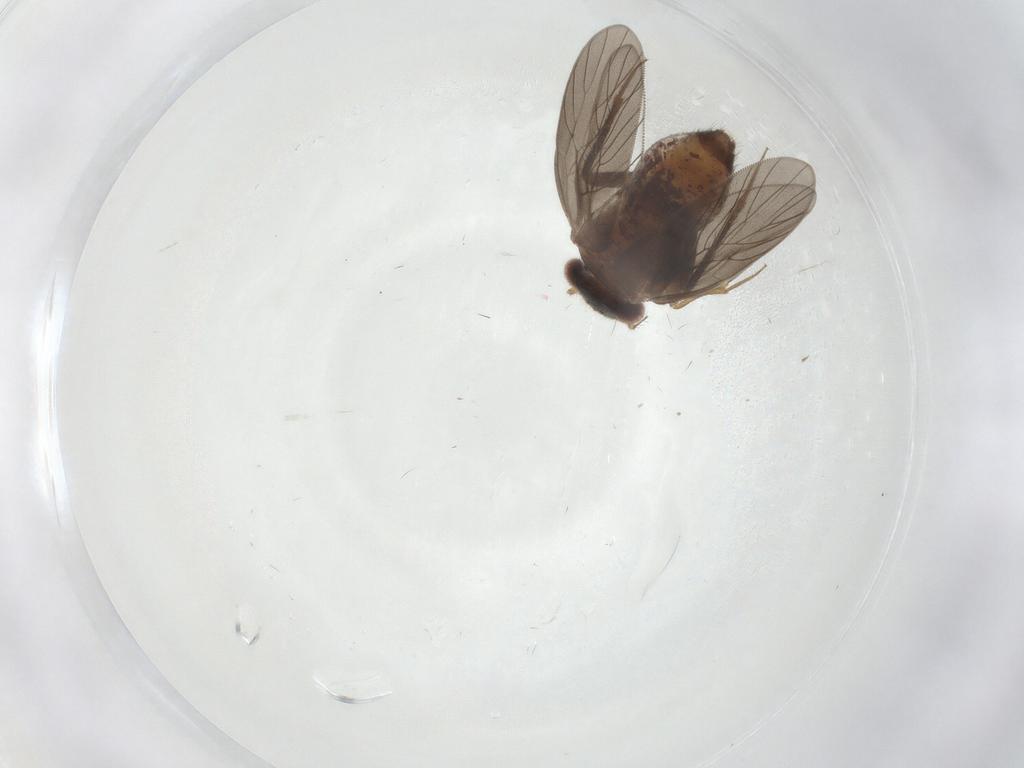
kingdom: Animalia
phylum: Arthropoda
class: Insecta
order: Psocodea
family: Lepidopsocidae
